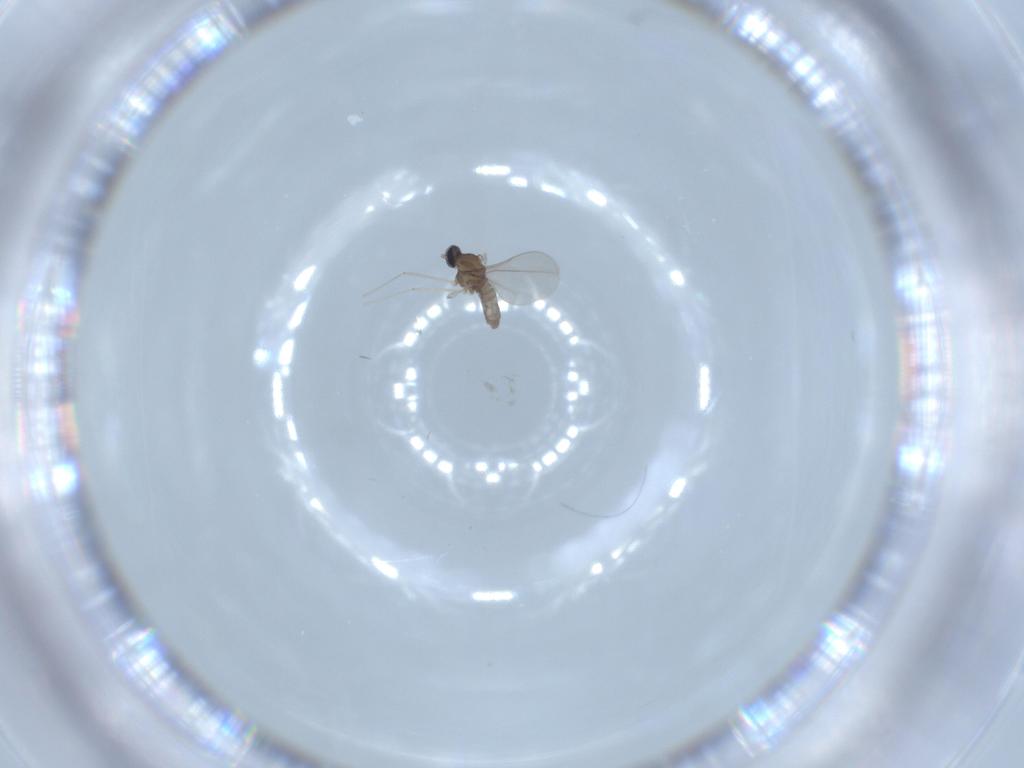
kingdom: Animalia
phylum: Arthropoda
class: Insecta
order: Diptera
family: Cecidomyiidae
